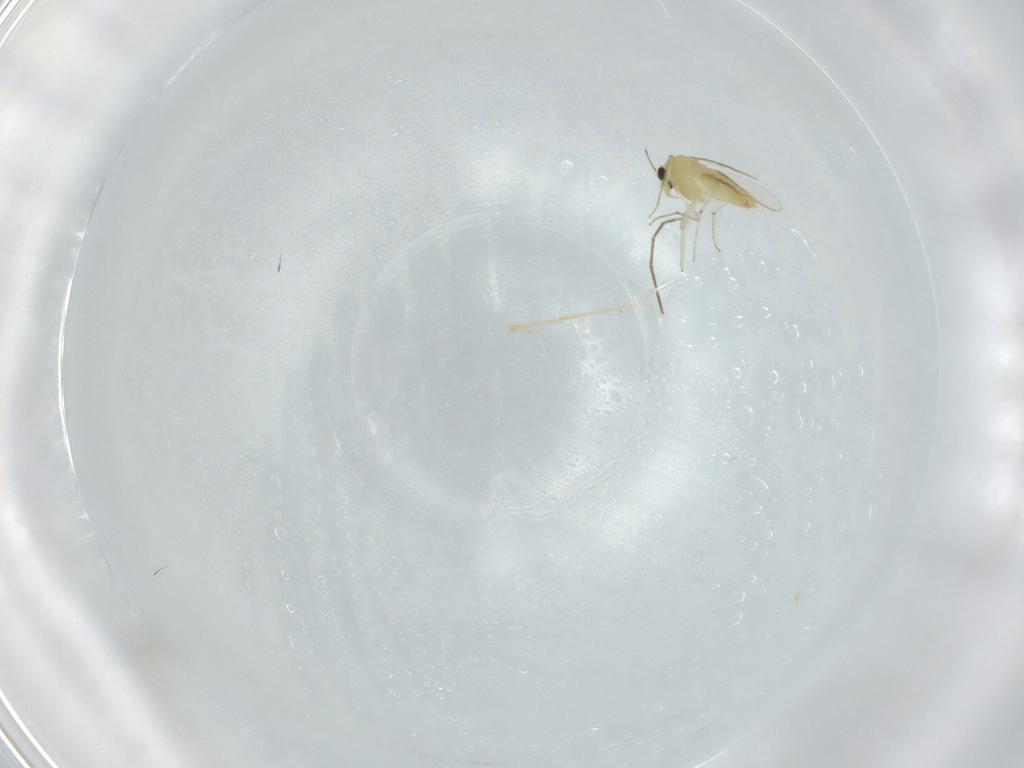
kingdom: Animalia
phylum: Arthropoda
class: Insecta
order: Diptera
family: Chironomidae
